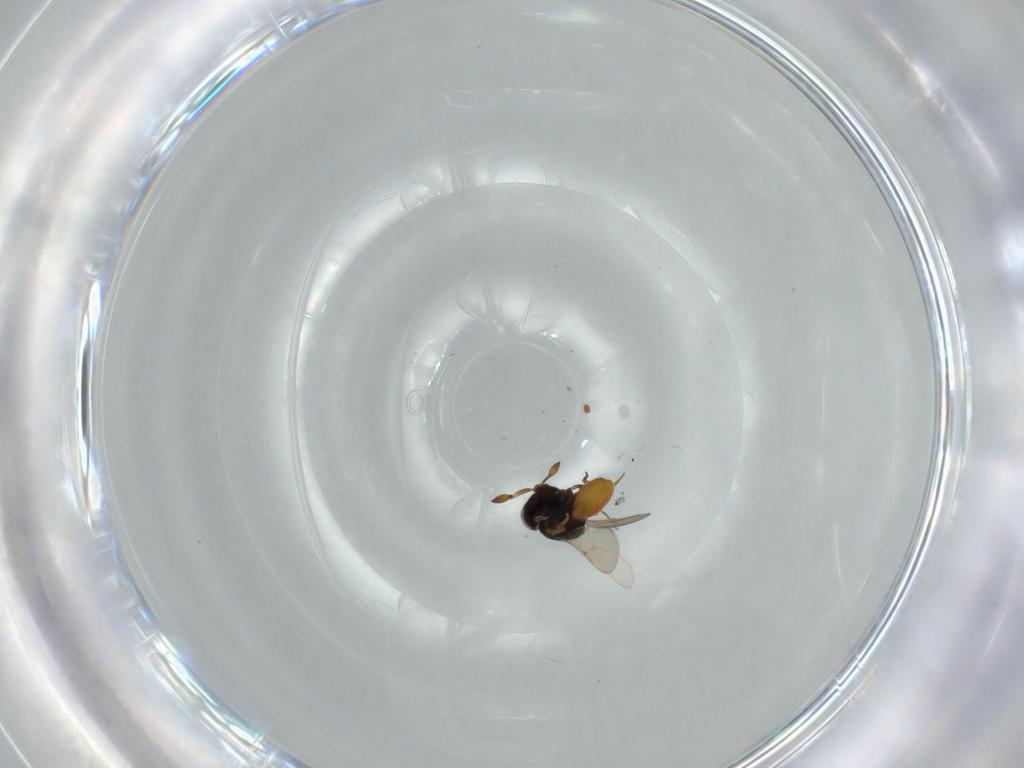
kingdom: Animalia
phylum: Arthropoda
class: Insecta
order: Hymenoptera
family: Scelionidae
